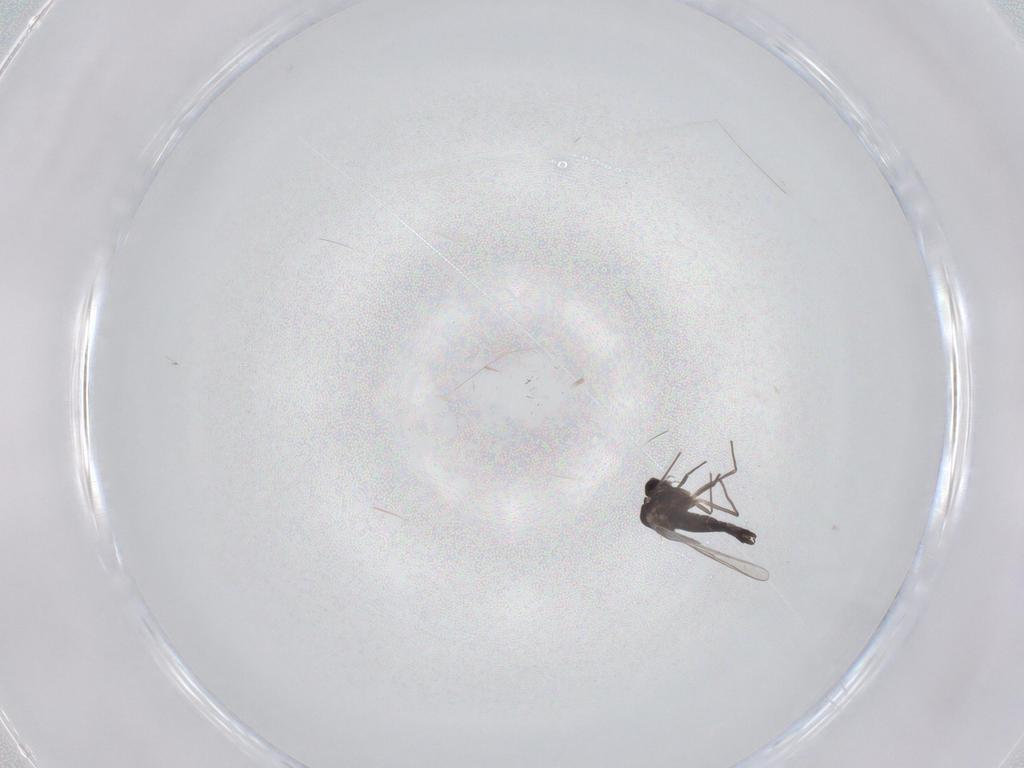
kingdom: Animalia
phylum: Arthropoda
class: Insecta
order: Diptera
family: Chironomidae
